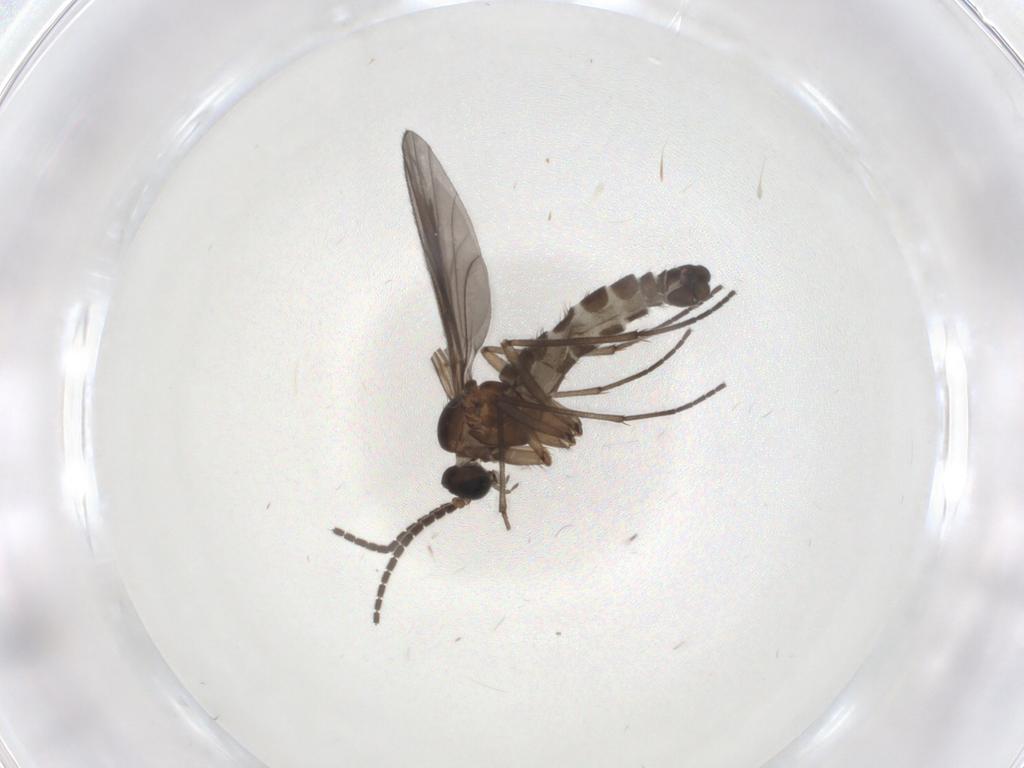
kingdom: Animalia
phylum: Arthropoda
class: Insecta
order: Diptera
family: Sciaridae
